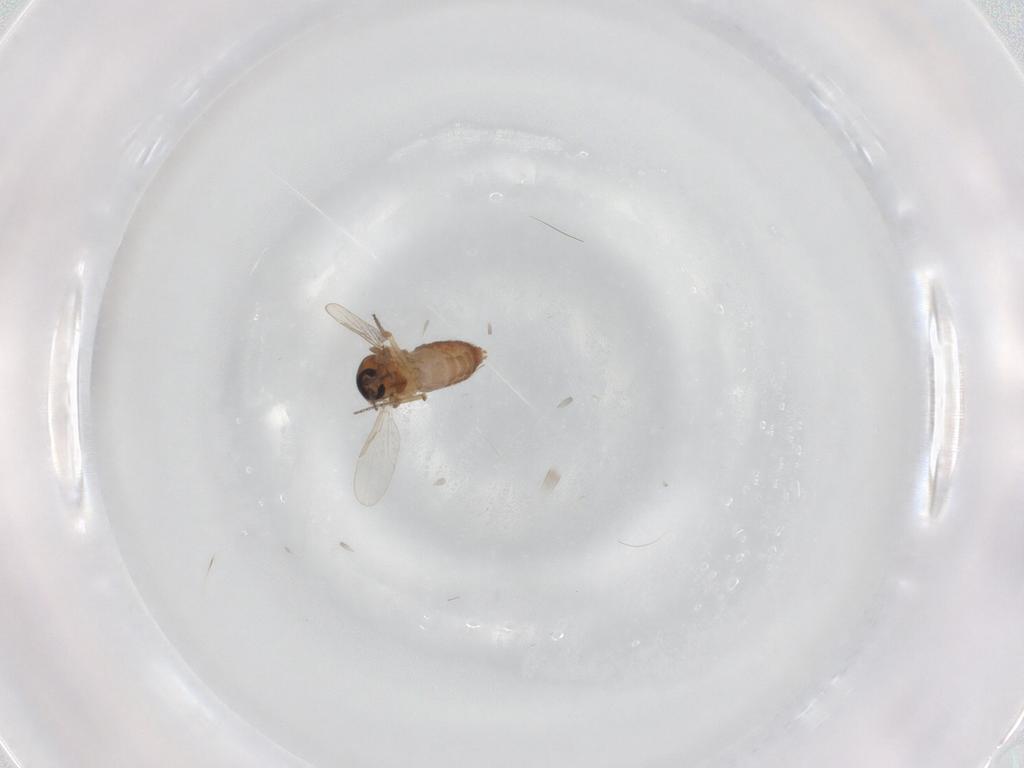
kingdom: Animalia
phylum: Arthropoda
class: Insecta
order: Diptera
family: Ceratopogonidae
